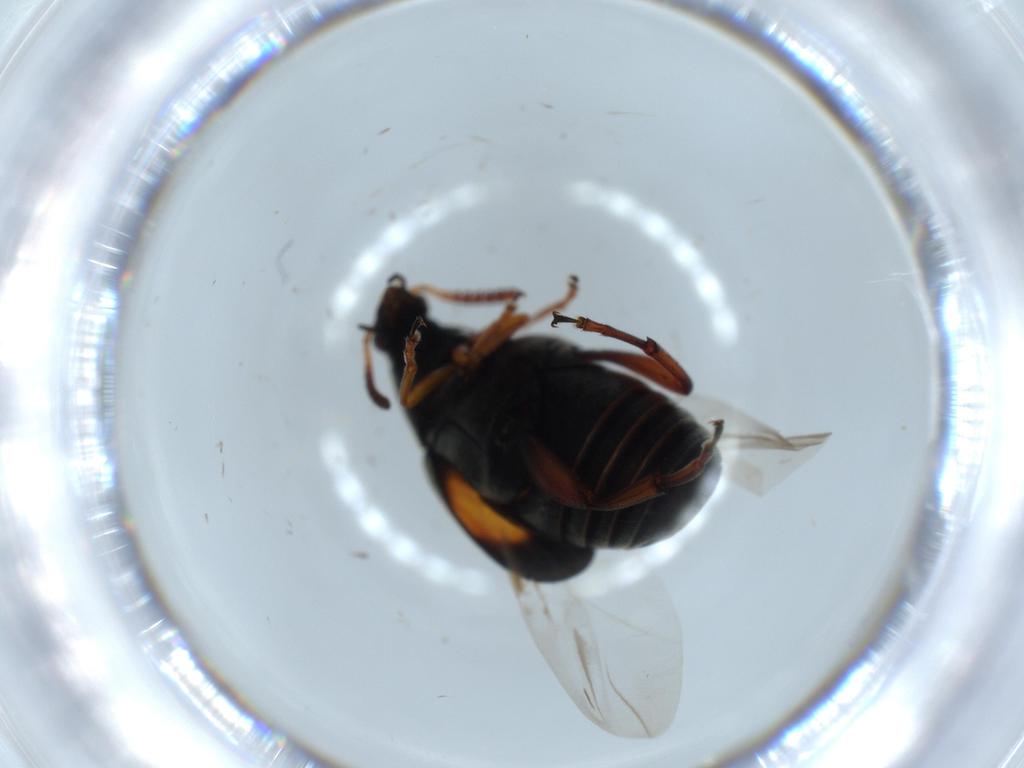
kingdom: Animalia
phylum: Arthropoda
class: Insecta
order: Coleoptera
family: Chrysomelidae
